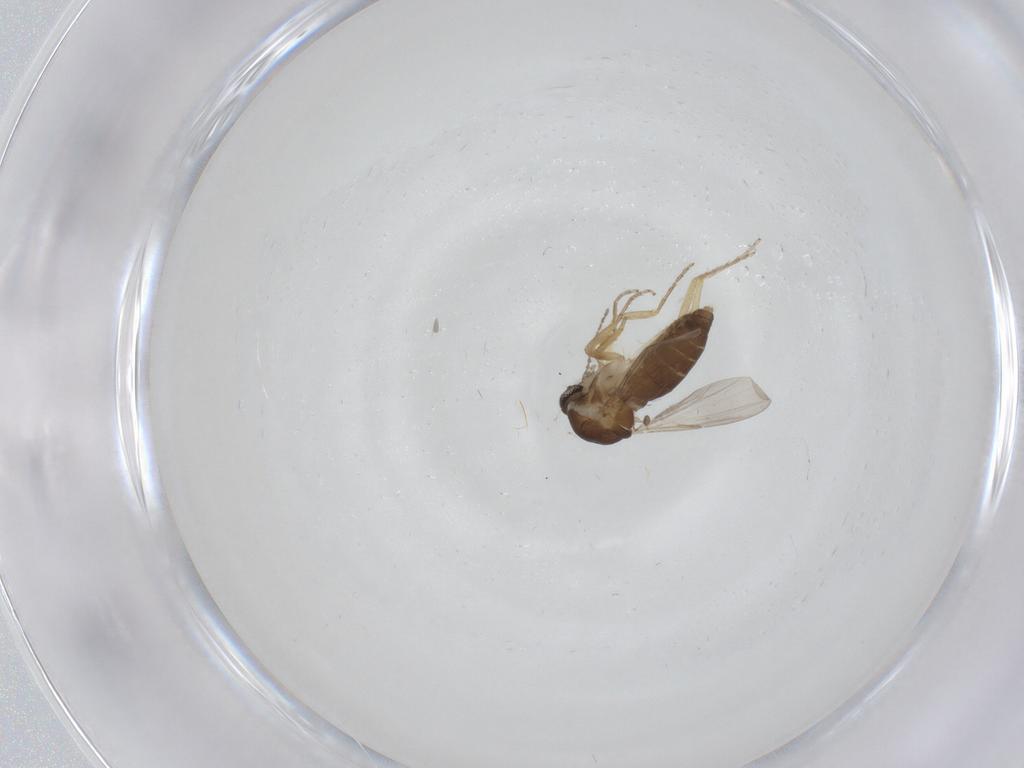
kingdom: Animalia
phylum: Arthropoda
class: Insecta
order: Diptera
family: Ceratopogonidae
